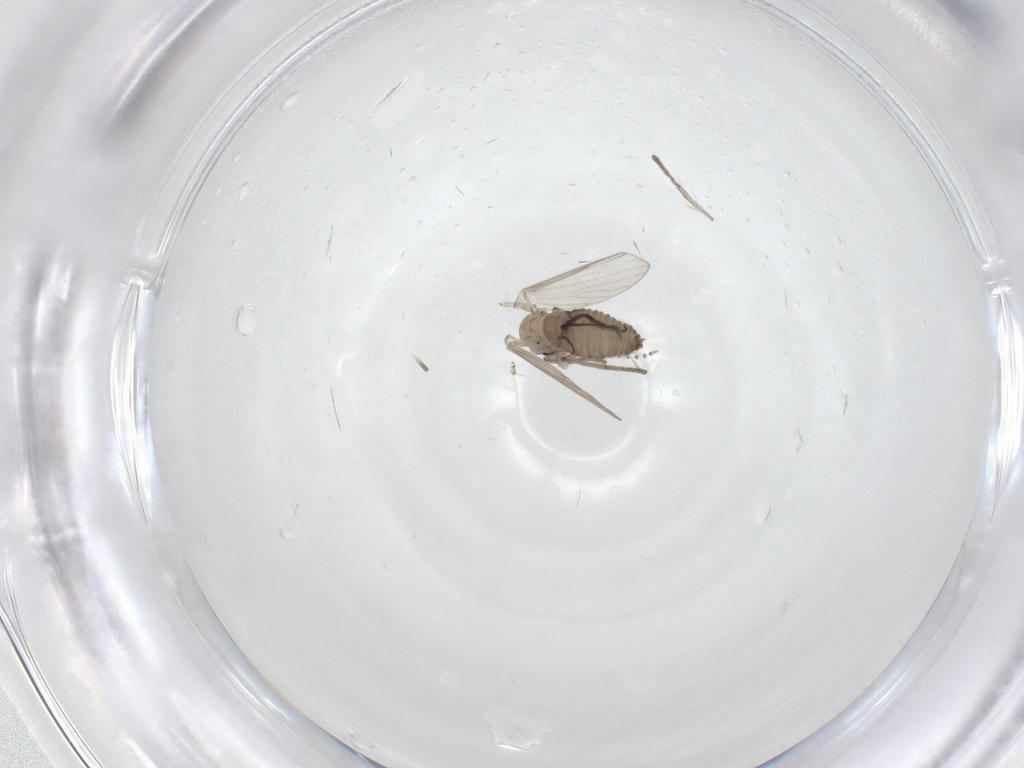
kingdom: Animalia
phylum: Arthropoda
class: Insecta
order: Diptera
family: Psychodidae
